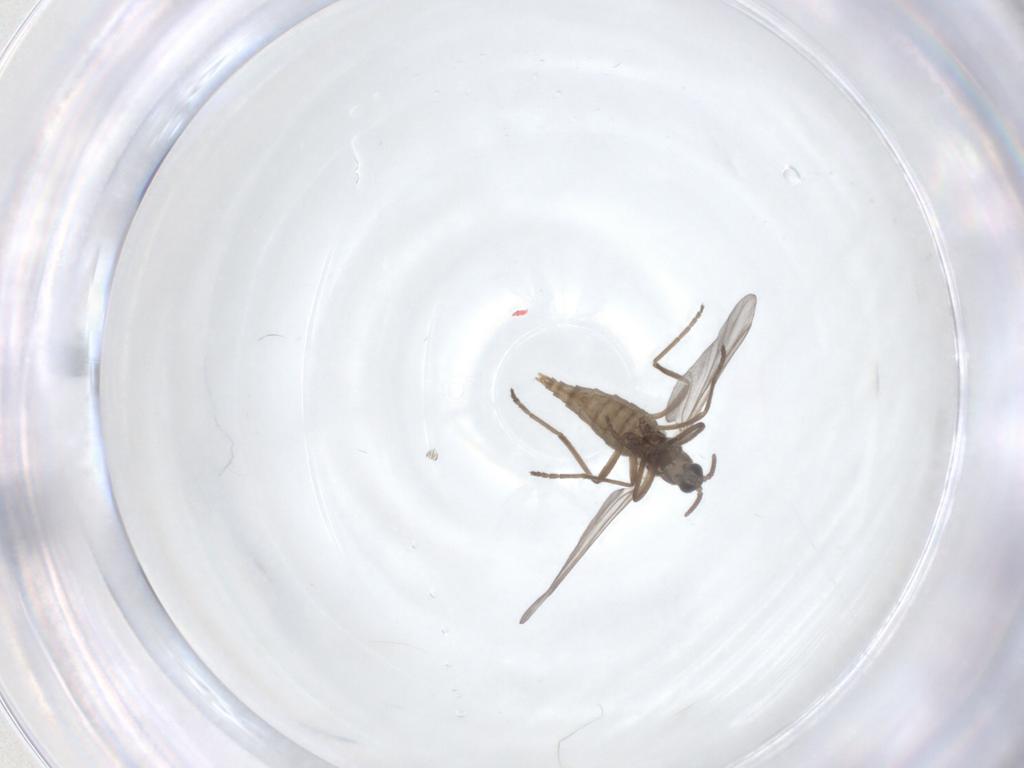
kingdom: Animalia
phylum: Arthropoda
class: Insecta
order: Diptera
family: Cecidomyiidae
